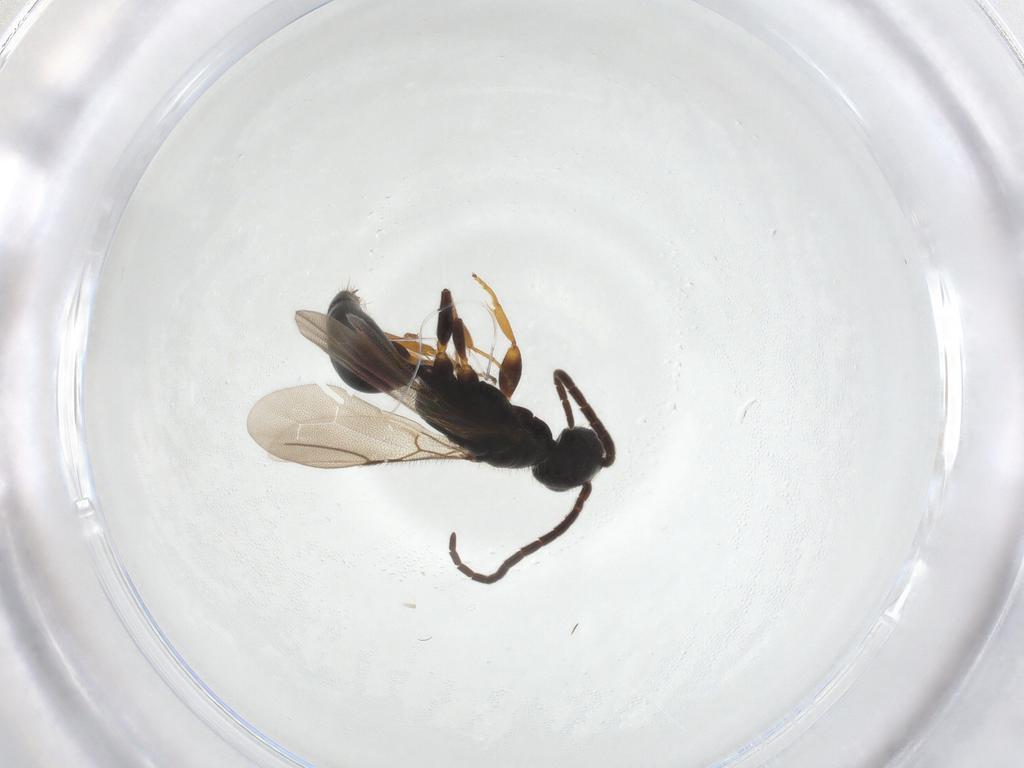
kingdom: Animalia
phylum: Arthropoda
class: Insecta
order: Hymenoptera
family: Bethylidae
